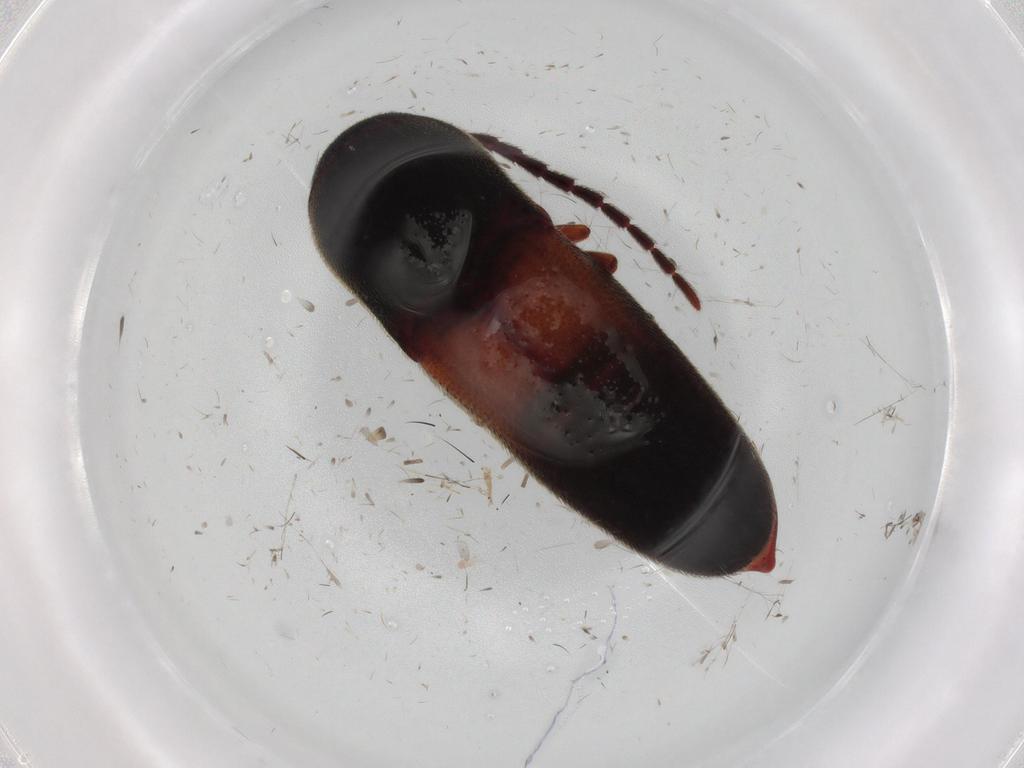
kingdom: Animalia
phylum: Arthropoda
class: Insecta
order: Coleoptera
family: Eucnemidae
